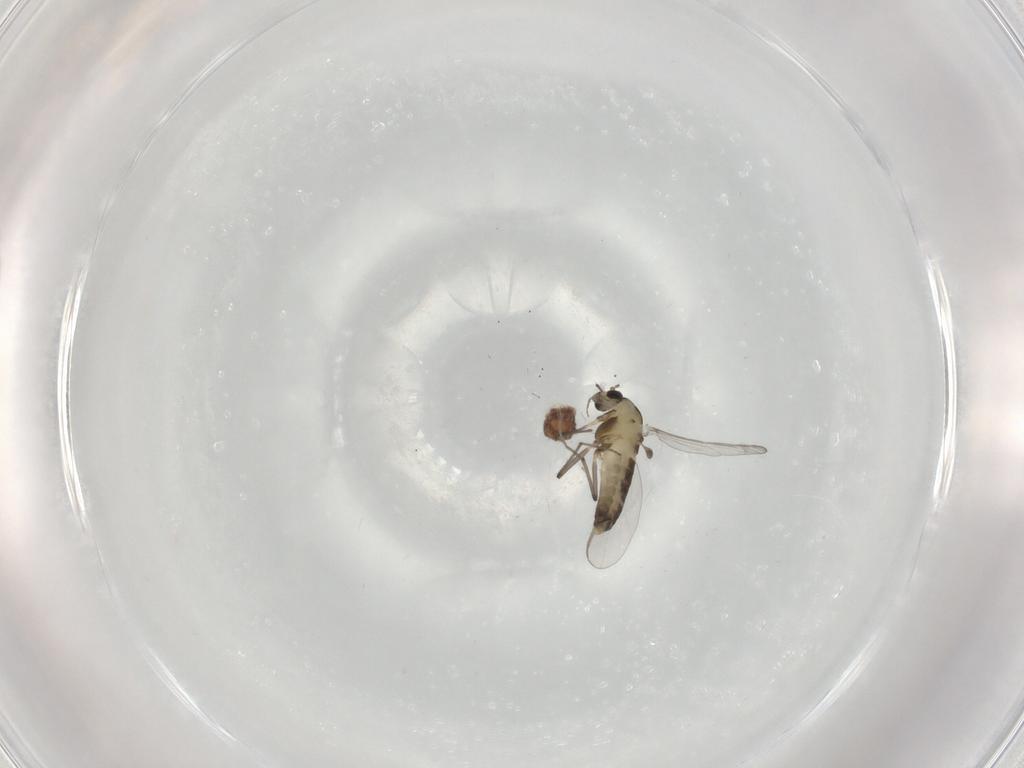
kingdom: Animalia
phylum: Arthropoda
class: Insecta
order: Diptera
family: Chironomidae
